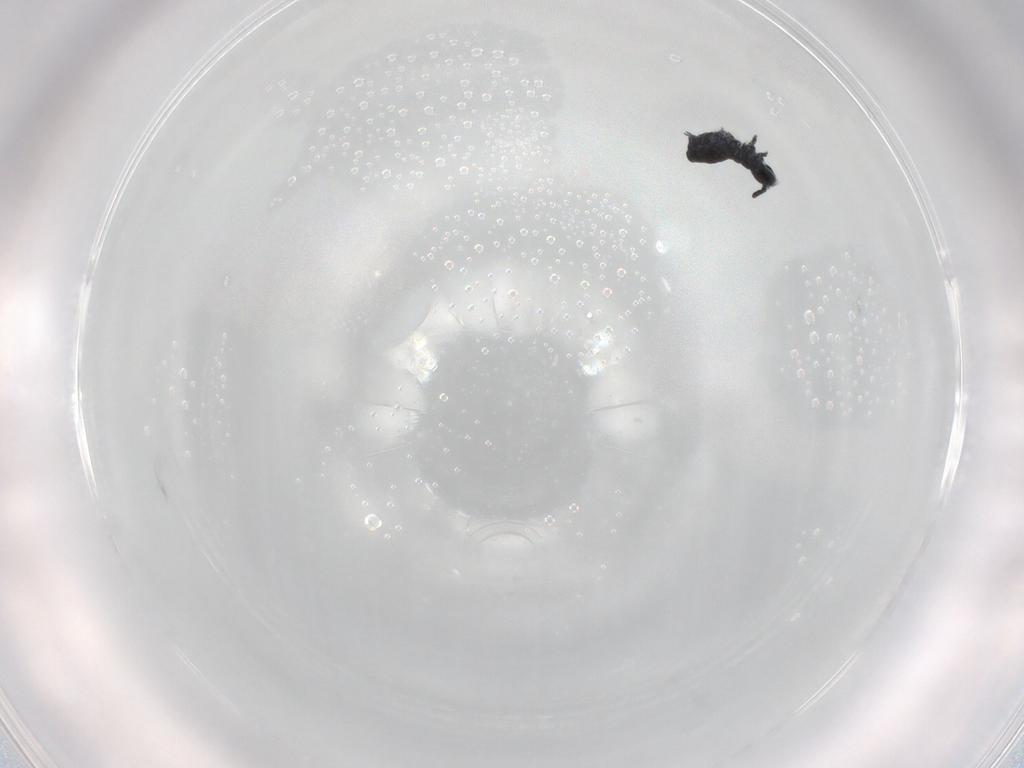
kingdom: Animalia
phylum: Arthropoda
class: Collembola
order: Poduromorpha
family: Hypogastruridae
